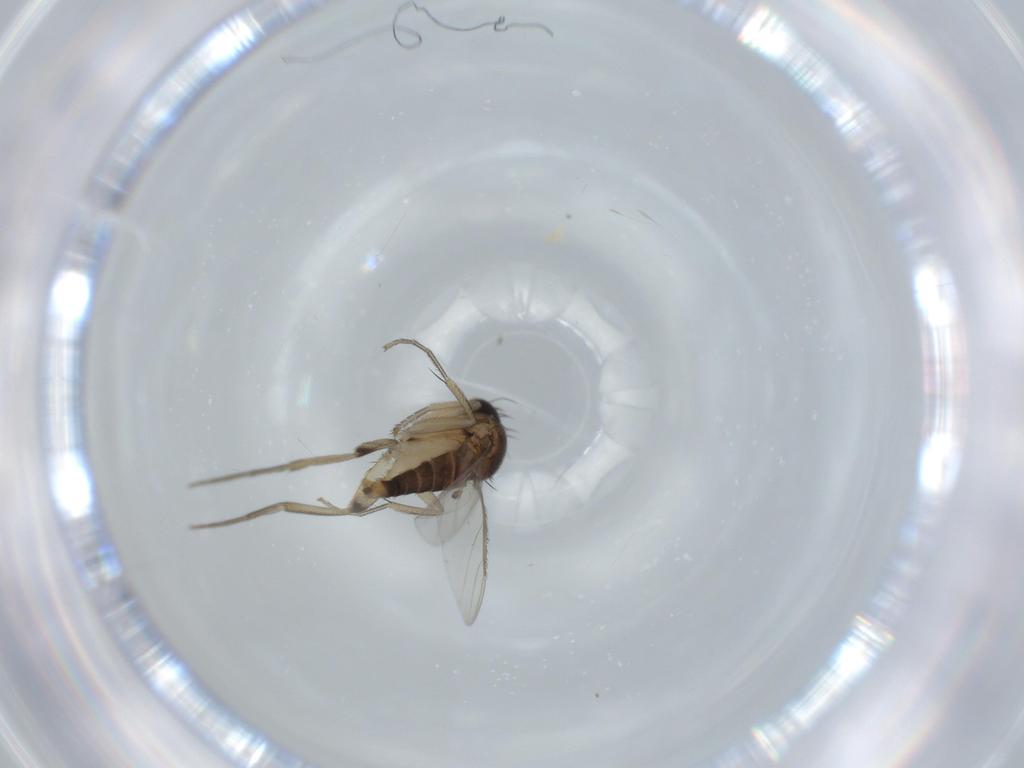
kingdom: Animalia
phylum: Arthropoda
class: Insecta
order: Diptera
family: Phoridae
